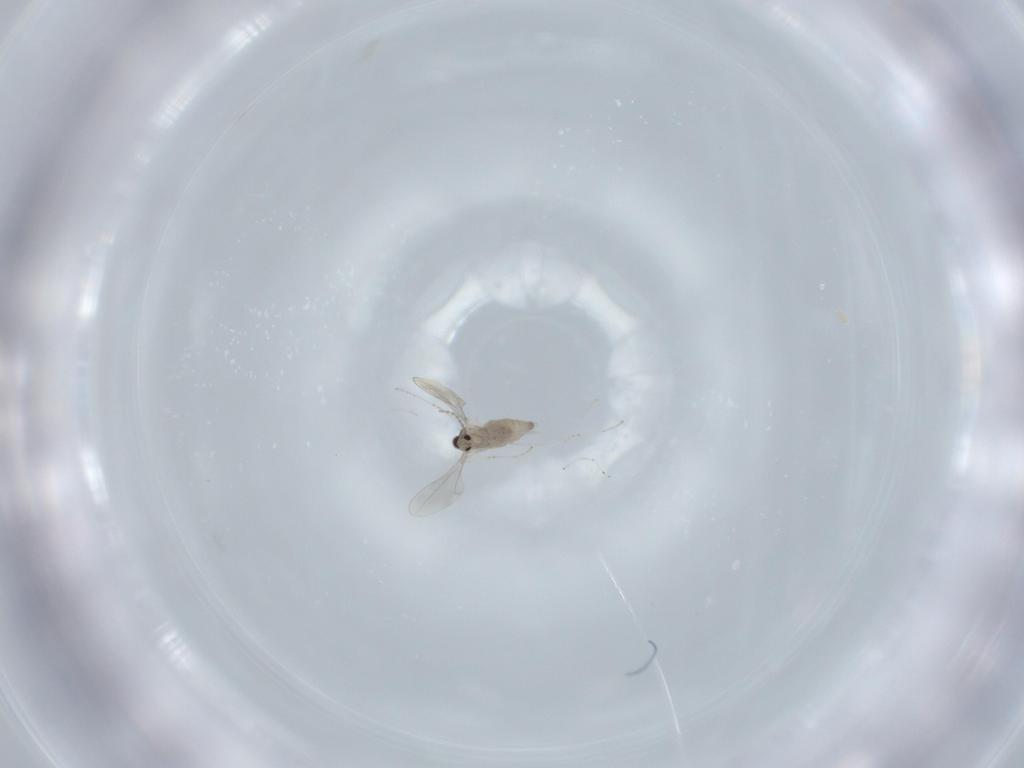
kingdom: Animalia
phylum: Arthropoda
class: Insecta
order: Diptera
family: Cecidomyiidae
